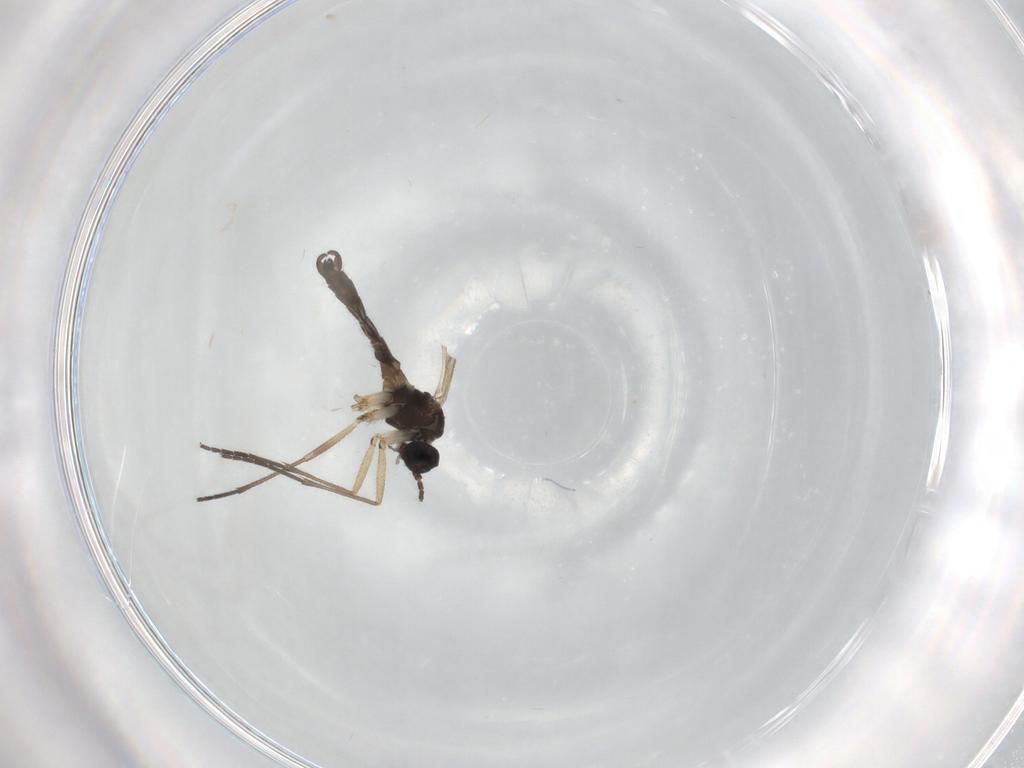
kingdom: Animalia
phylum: Arthropoda
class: Insecta
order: Diptera
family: Sciaridae
